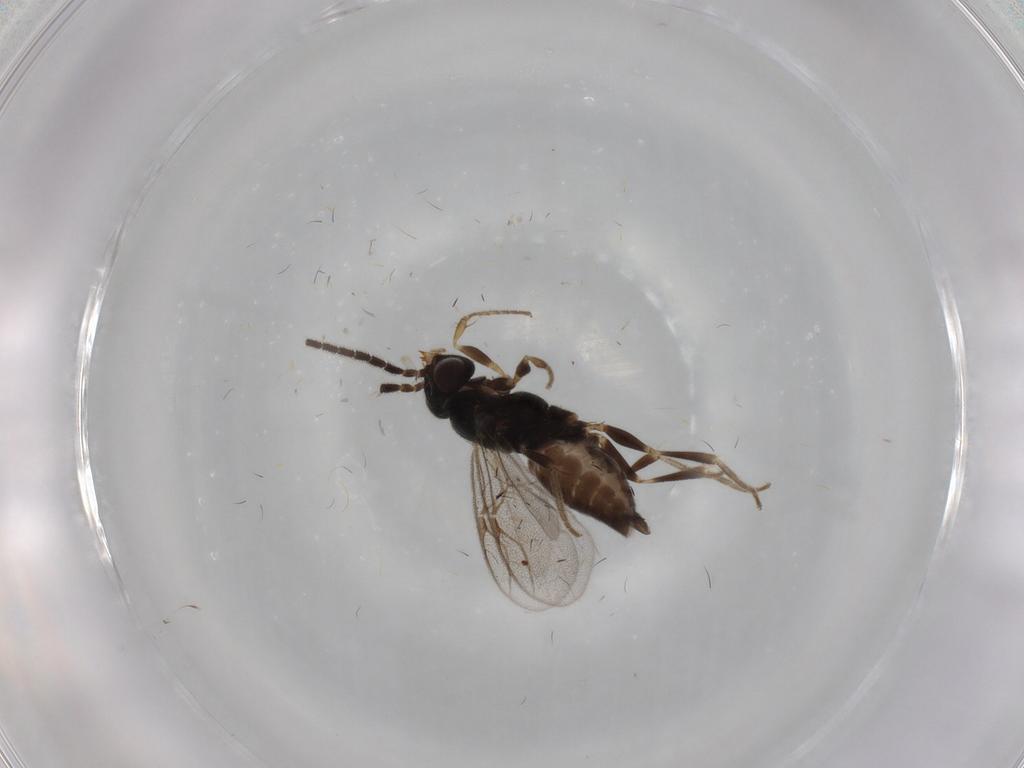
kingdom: Animalia
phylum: Arthropoda
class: Insecta
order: Hymenoptera
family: Dryinidae
